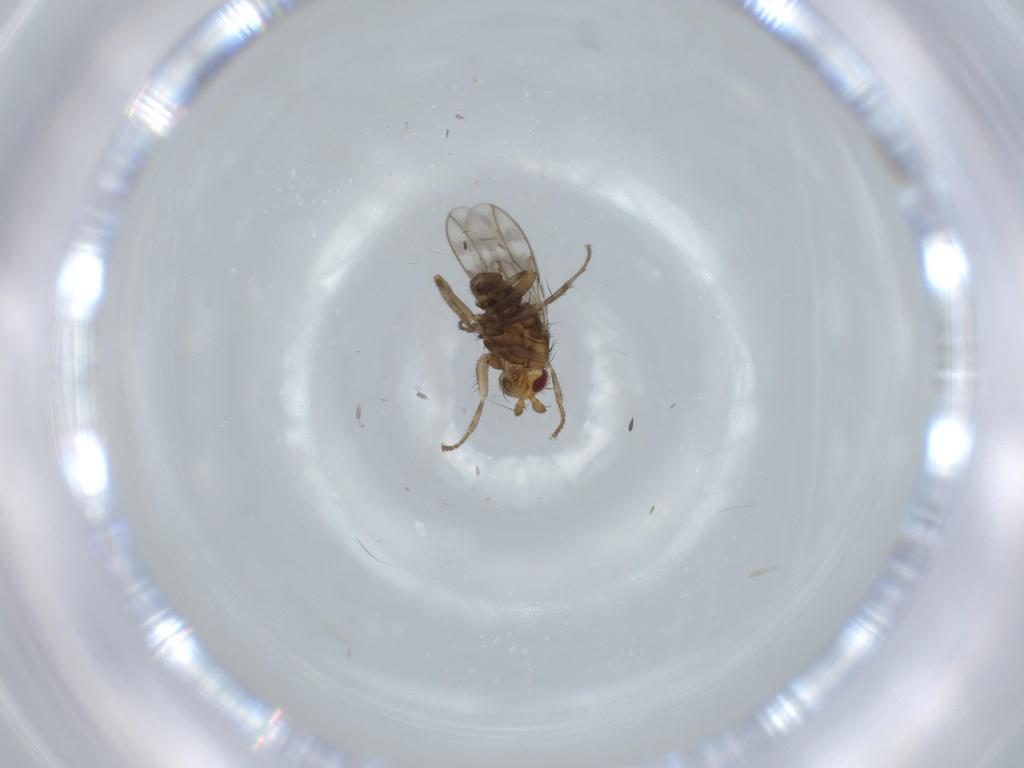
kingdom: Animalia
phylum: Arthropoda
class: Insecta
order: Diptera
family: Sphaeroceridae
